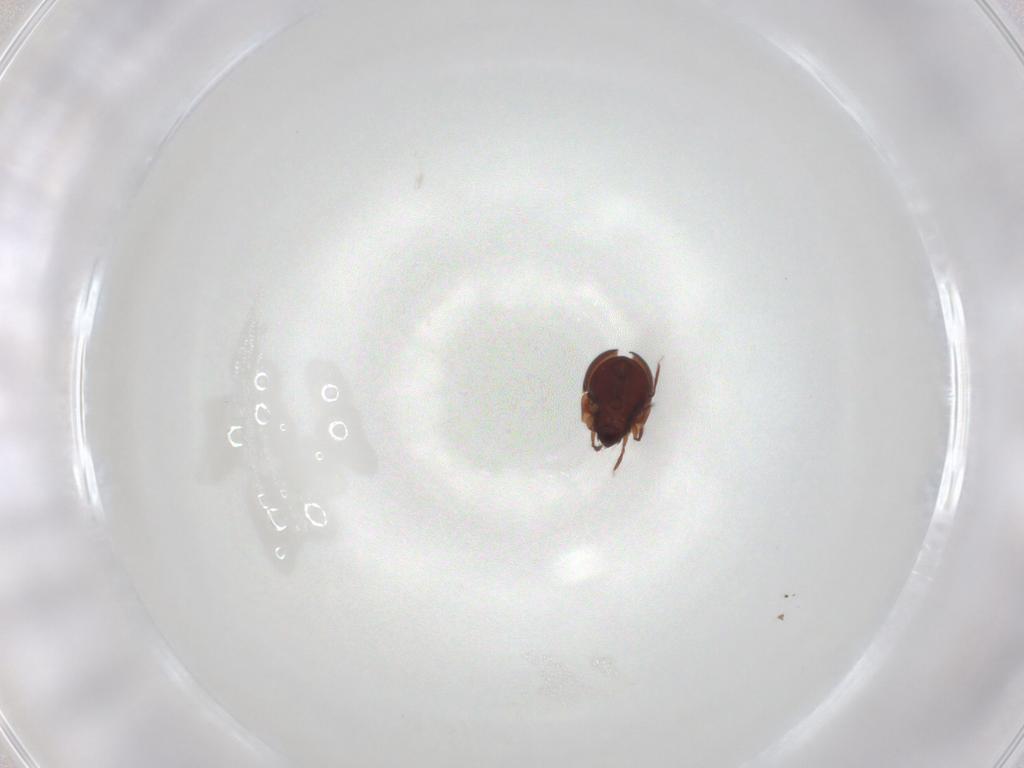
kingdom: Animalia
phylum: Arthropoda
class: Arachnida
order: Sarcoptiformes
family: Humerobatidae
